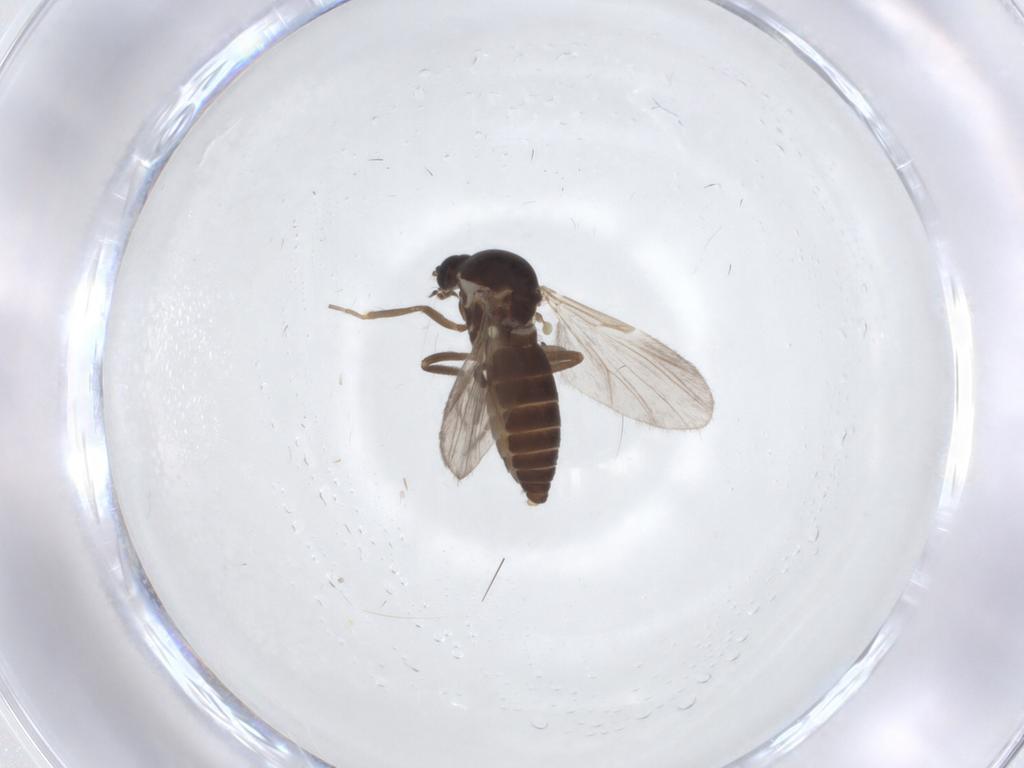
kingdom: Animalia
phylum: Arthropoda
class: Insecta
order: Diptera
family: Ceratopogonidae
